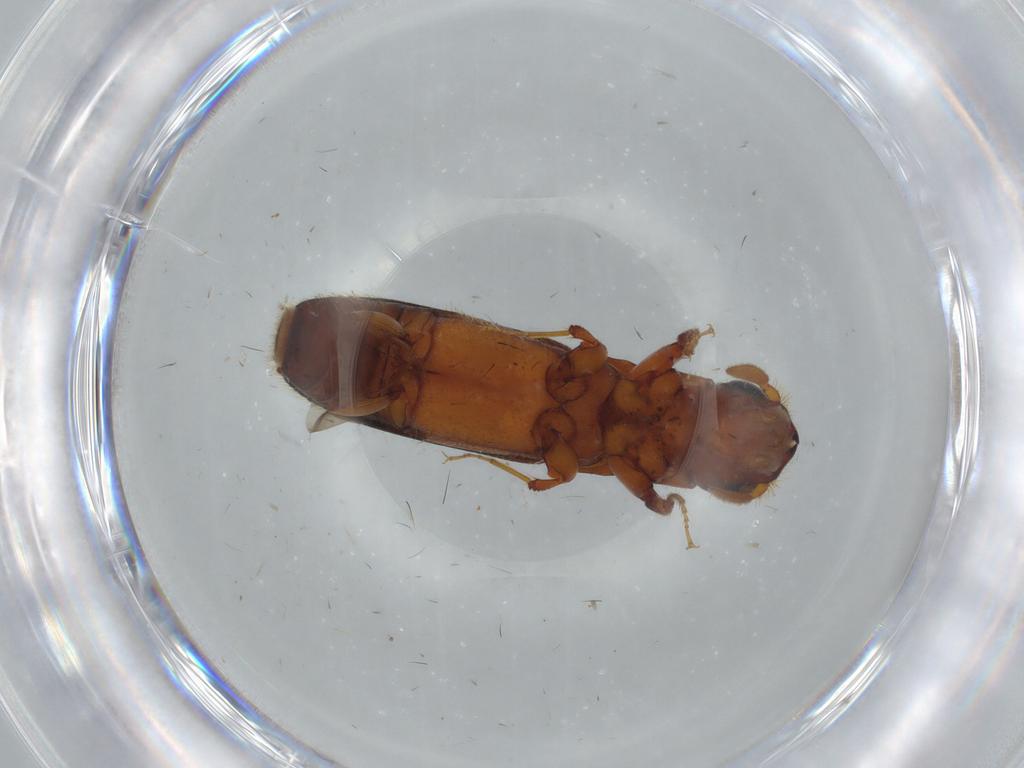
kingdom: Animalia
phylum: Arthropoda
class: Insecta
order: Coleoptera
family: Curculionidae
